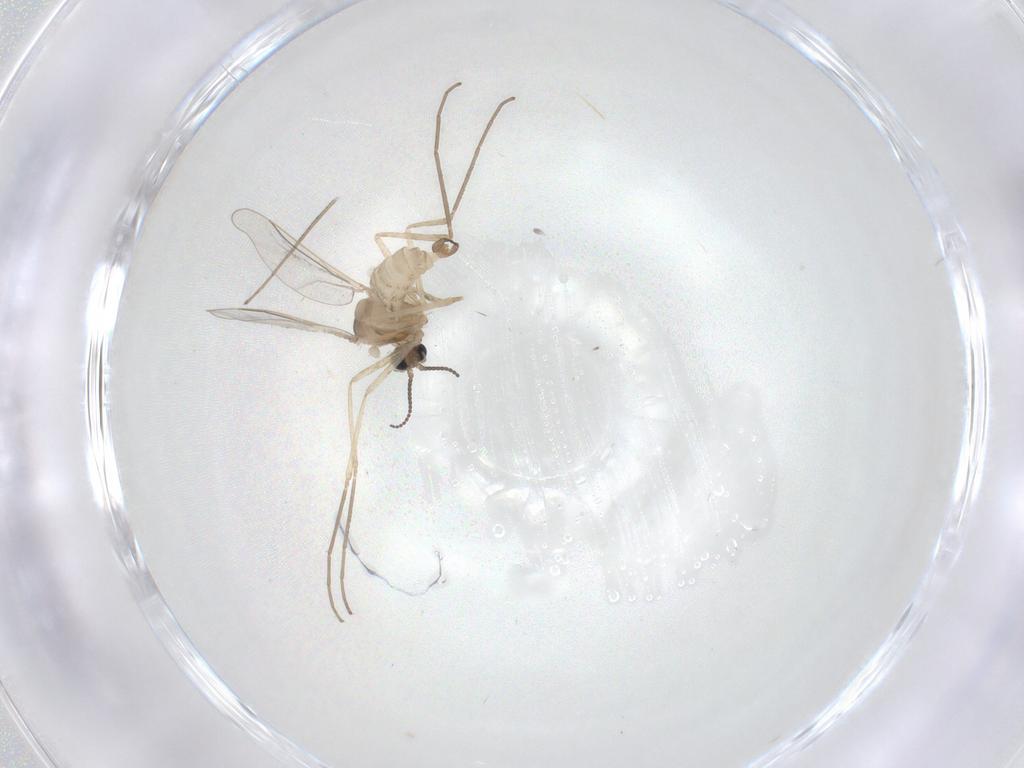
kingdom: Animalia
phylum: Arthropoda
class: Insecta
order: Diptera
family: Cecidomyiidae
